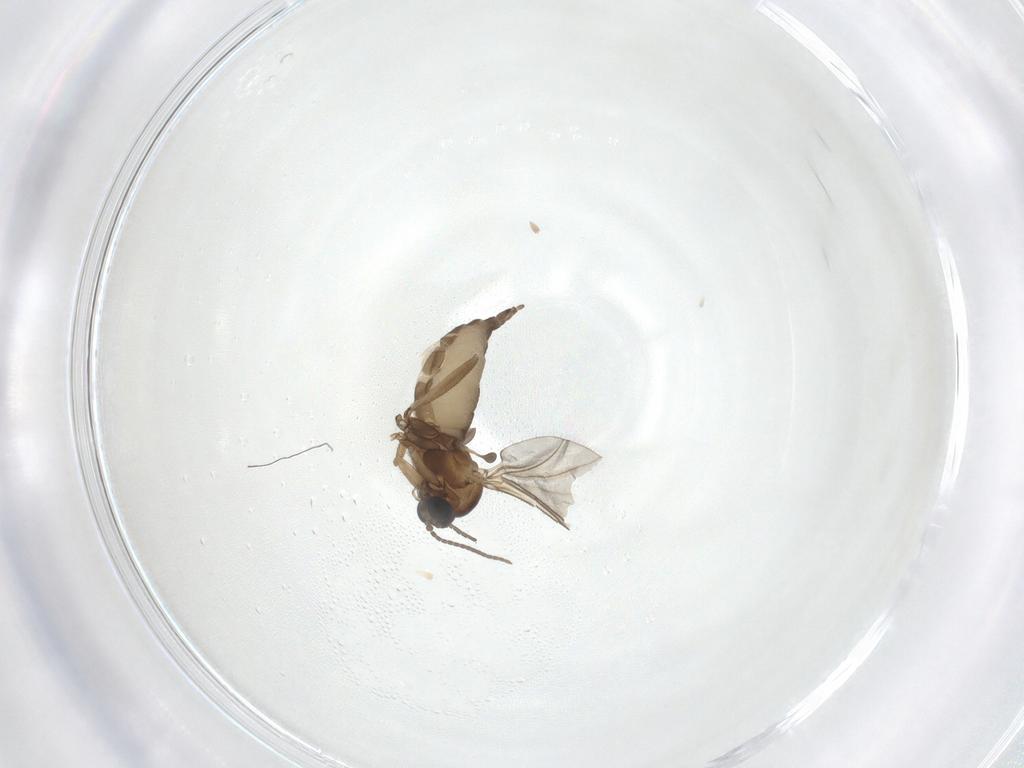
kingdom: Animalia
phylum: Arthropoda
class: Insecta
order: Diptera
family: Sciaridae
